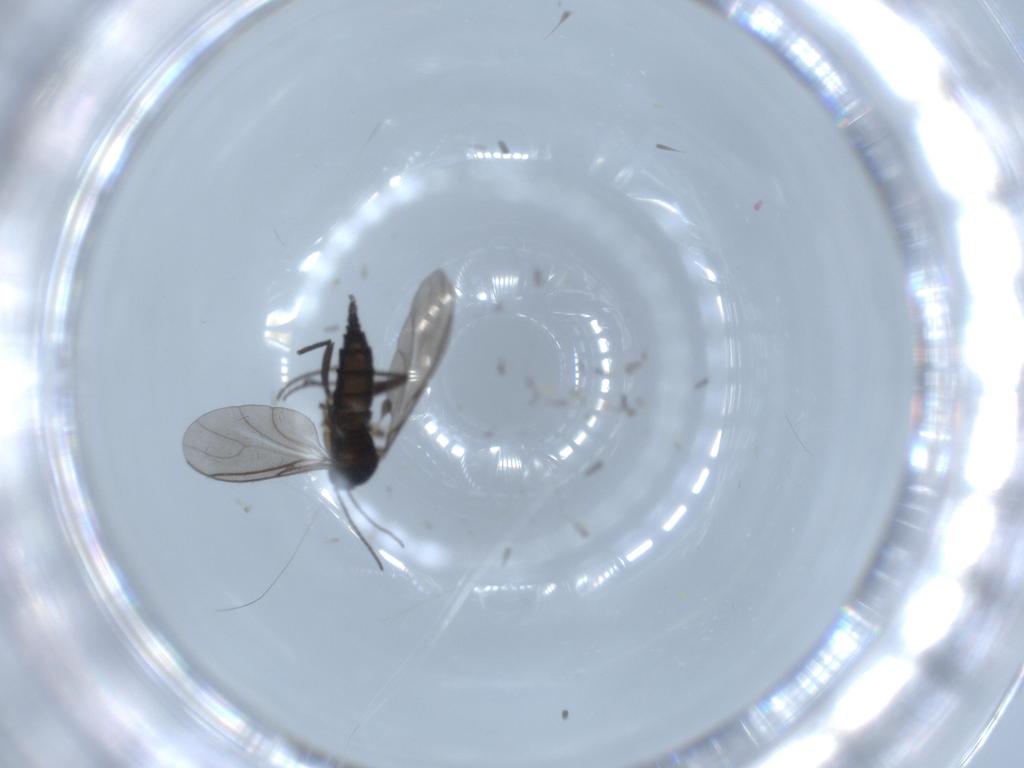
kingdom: Animalia
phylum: Arthropoda
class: Insecta
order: Diptera
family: Sciaridae
